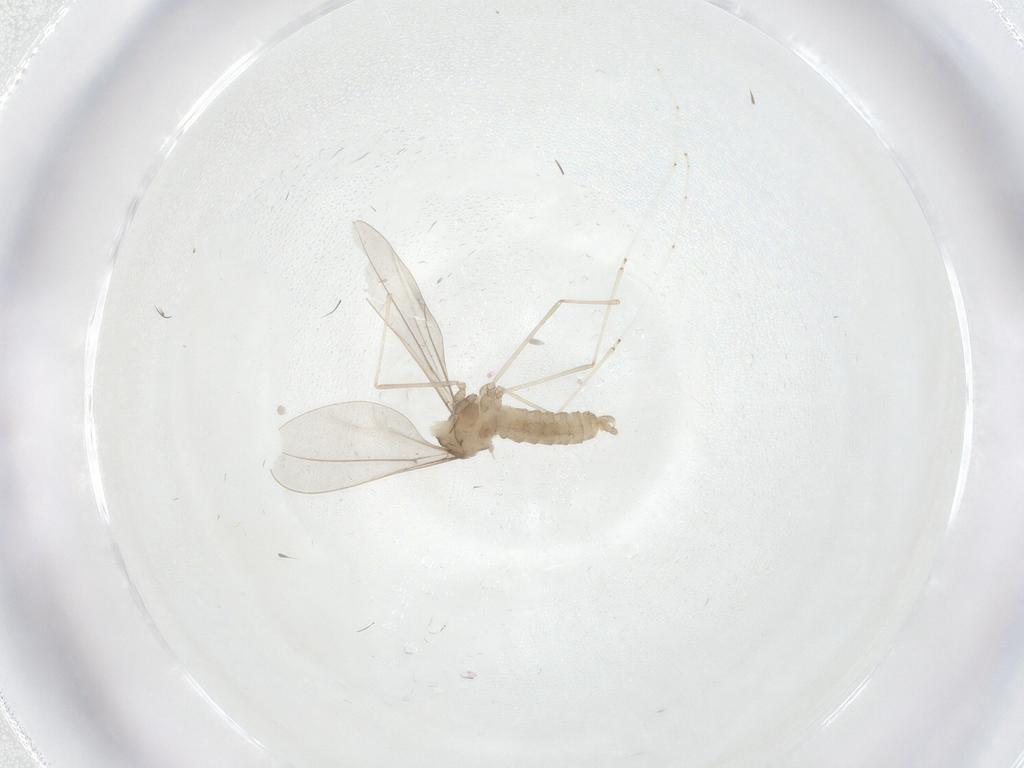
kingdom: Animalia
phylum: Arthropoda
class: Insecta
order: Diptera
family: Cecidomyiidae
